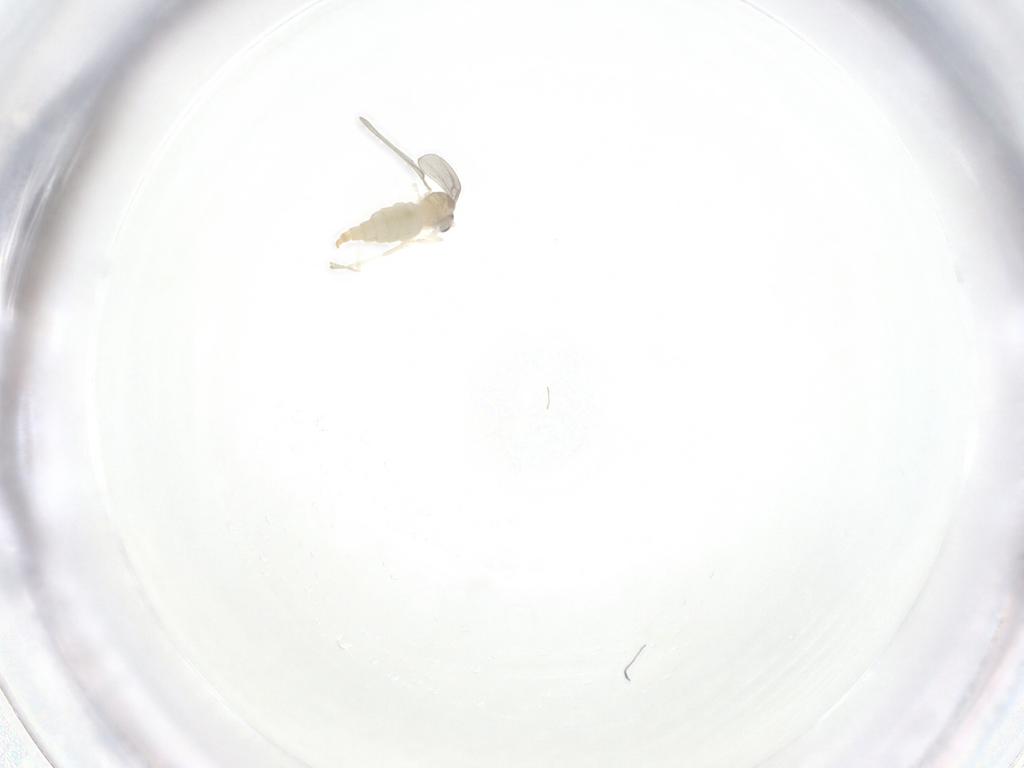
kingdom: Animalia
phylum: Arthropoda
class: Insecta
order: Diptera
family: Cecidomyiidae
